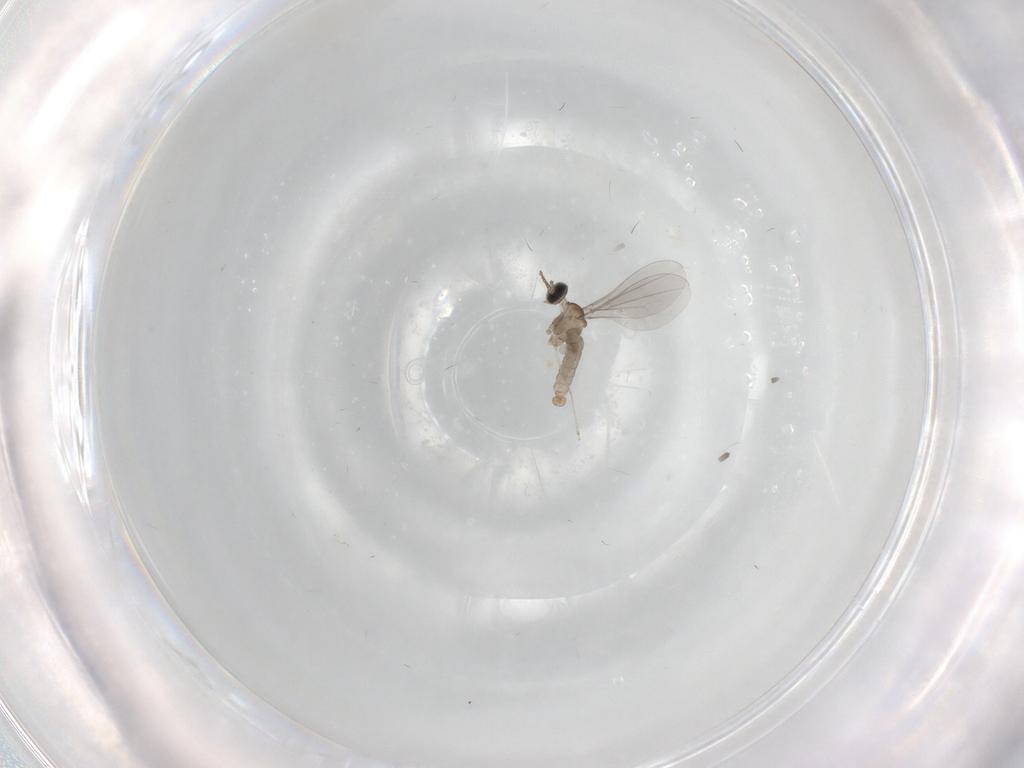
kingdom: Animalia
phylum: Arthropoda
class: Insecta
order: Diptera
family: Cecidomyiidae
